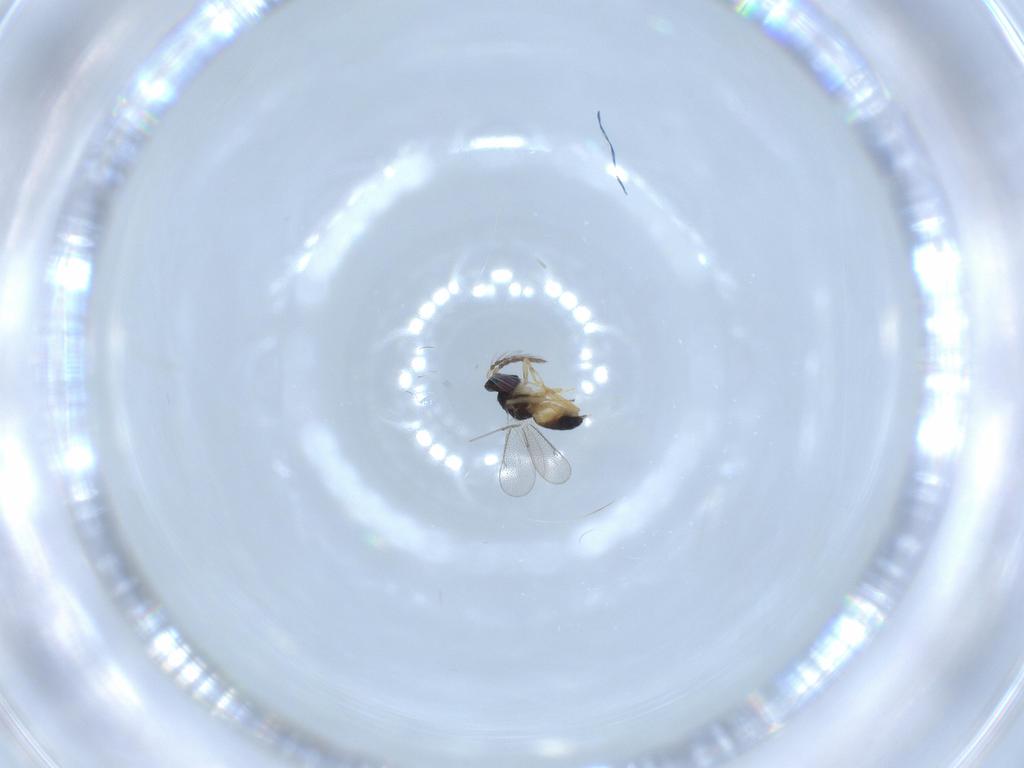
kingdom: Animalia
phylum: Arthropoda
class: Insecta
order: Hymenoptera
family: Eulophidae
